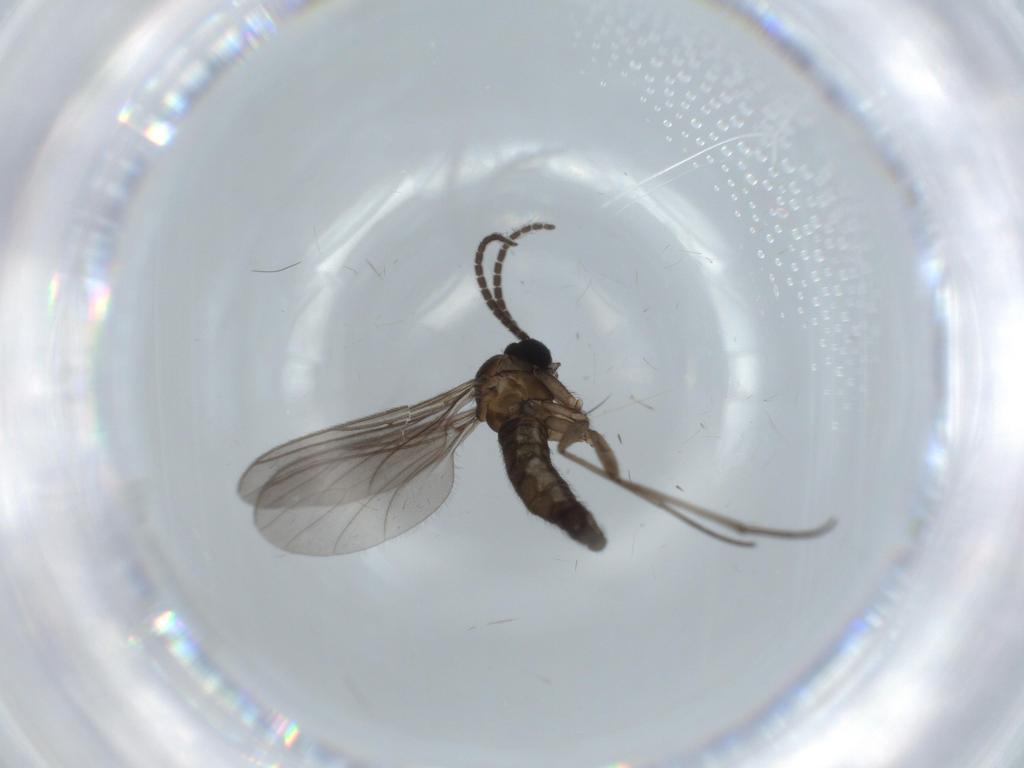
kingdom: Animalia
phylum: Arthropoda
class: Insecta
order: Diptera
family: Sciaridae
